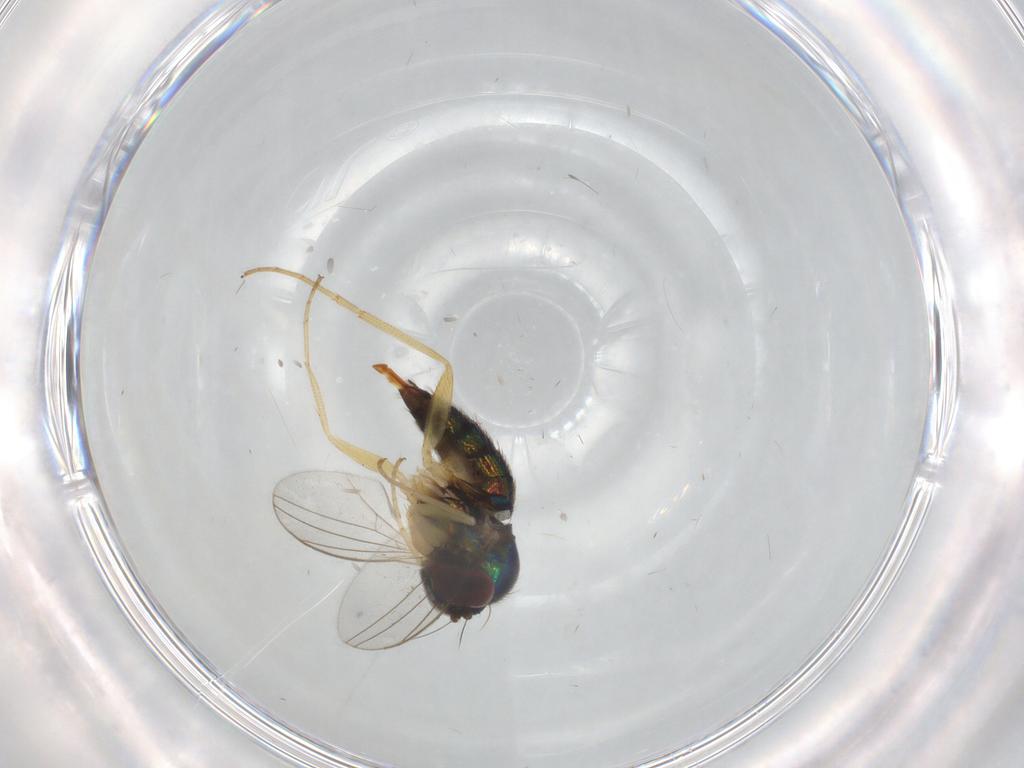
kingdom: Animalia
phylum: Arthropoda
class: Insecta
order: Diptera
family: Dolichopodidae
